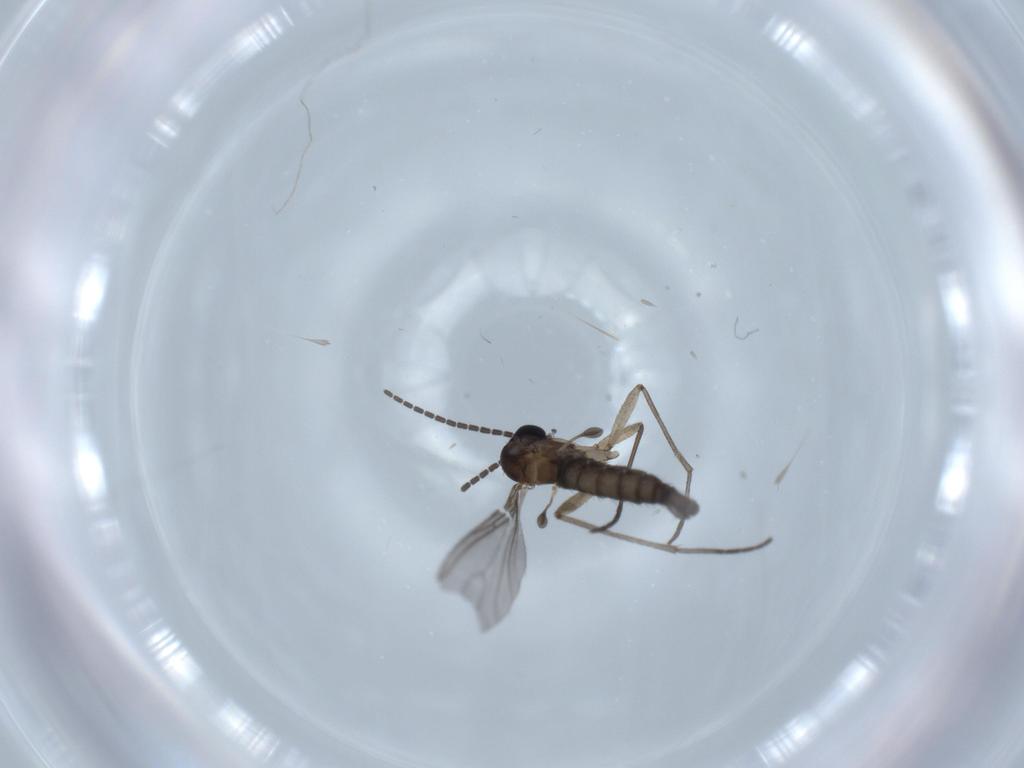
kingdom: Animalia
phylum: Arthropoda
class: Insecta
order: Diptera
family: Sciaridae
